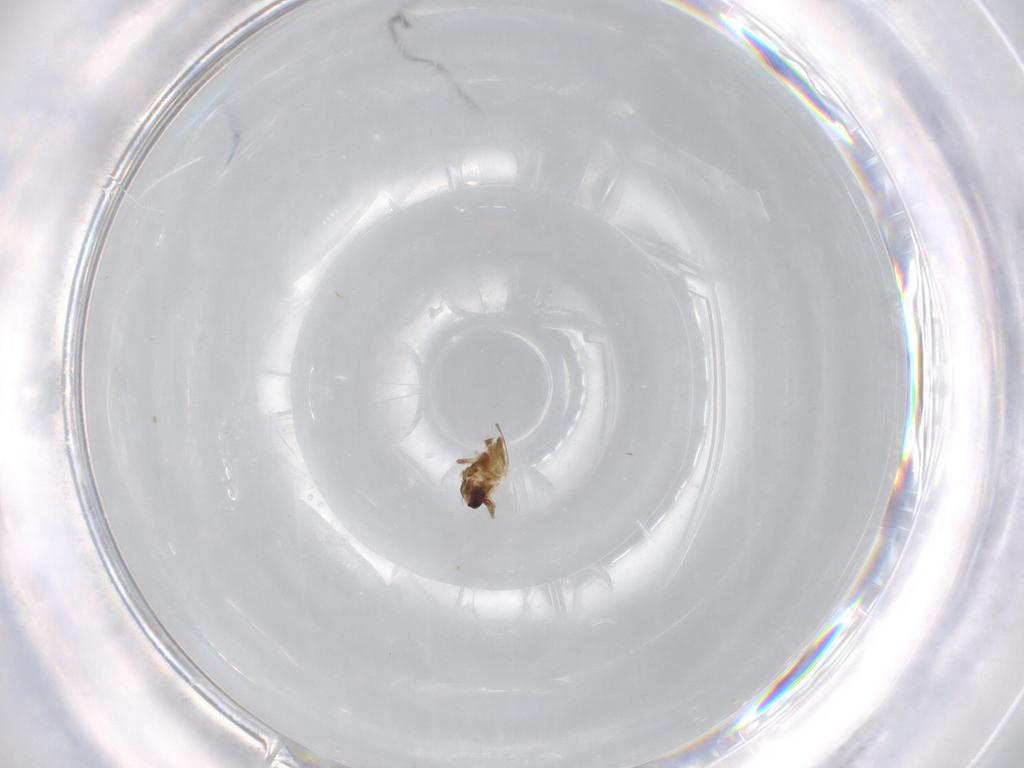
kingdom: Animalia
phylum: Arthropoda
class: Insecta
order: Diptera
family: Limoniidae
